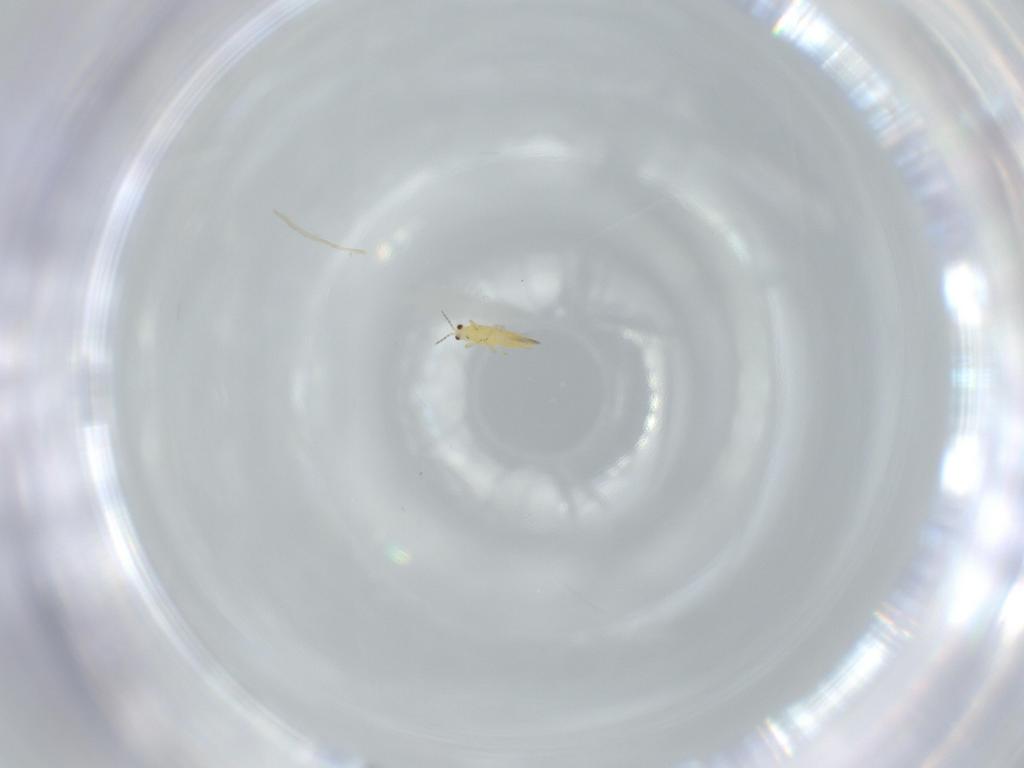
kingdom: Animalia
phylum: Arthropoda
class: Insecta
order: Thysanoptera
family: Thripidae
